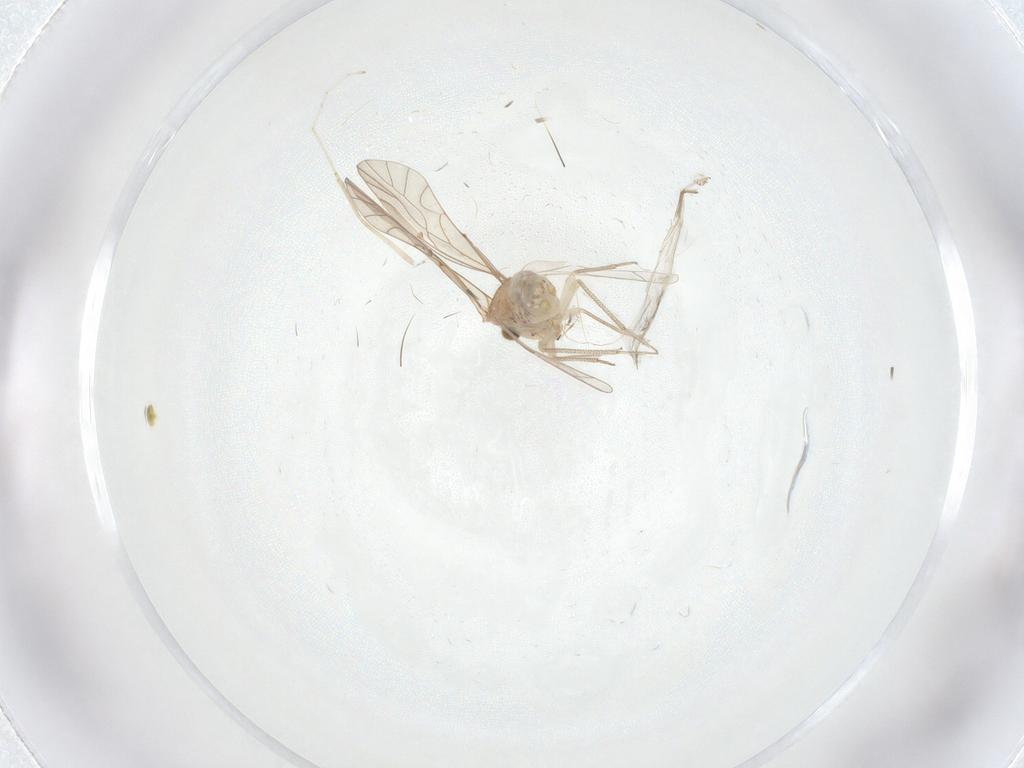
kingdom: Animalia
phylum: Arthropoda
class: Insecta
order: Psocodea
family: Lachesillidae
